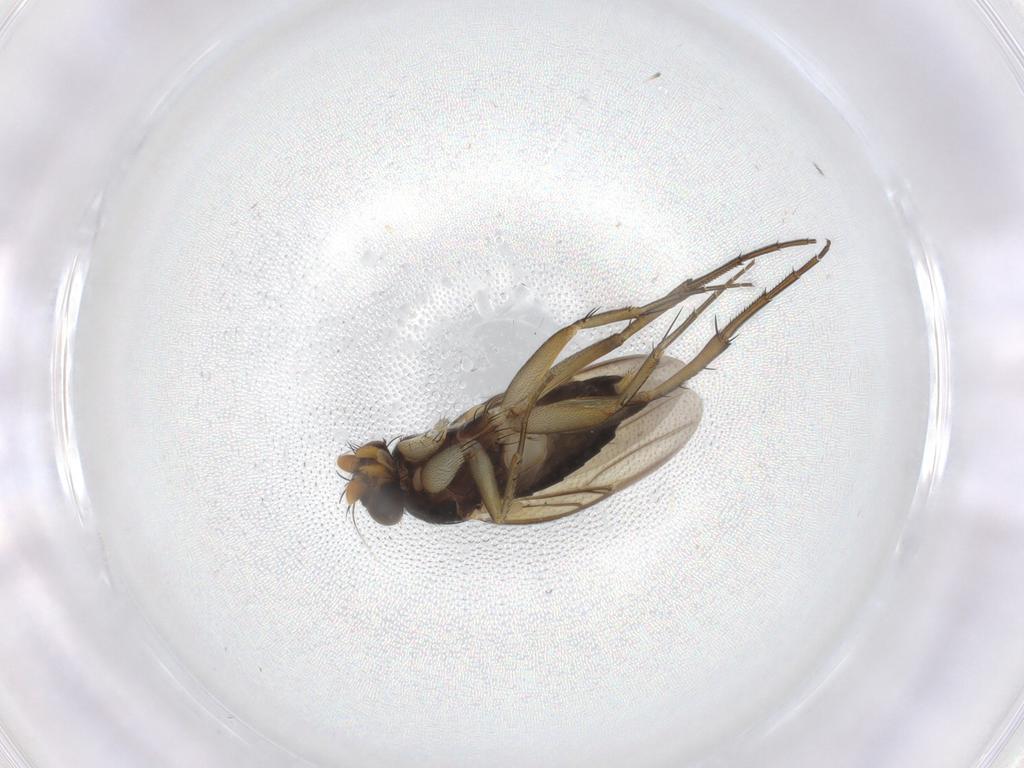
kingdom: Animalia
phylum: Arthropoda
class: Insecta
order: Diptera
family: Phoridae
